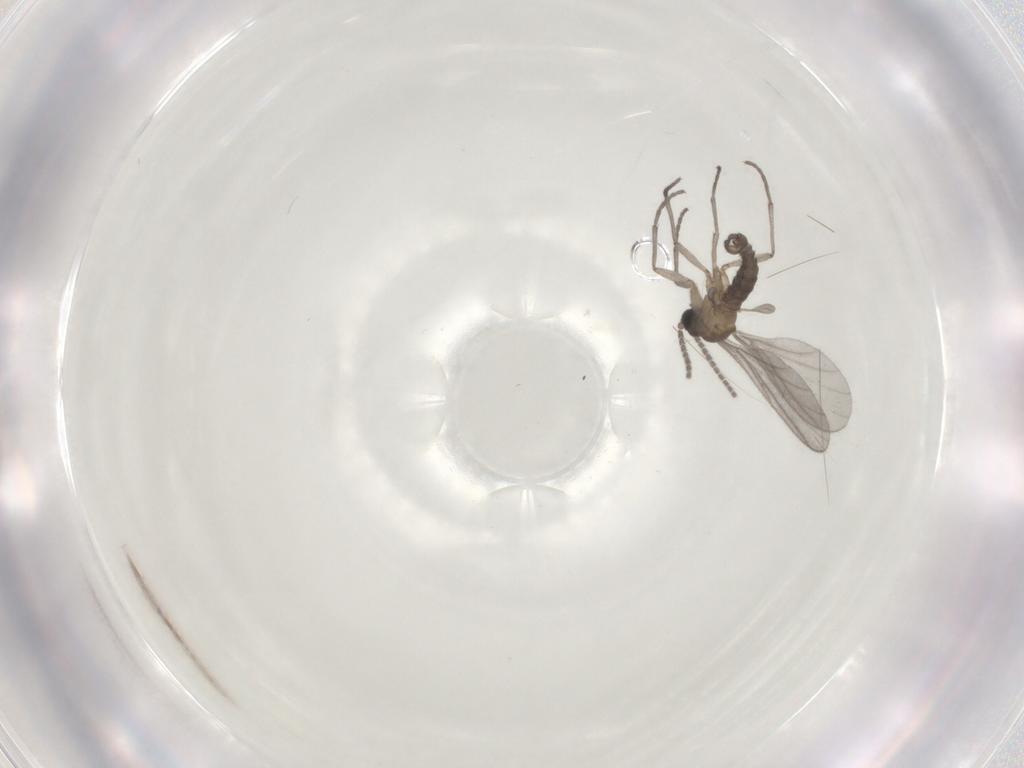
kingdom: Animalia
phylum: Arthropoda
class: Insecta
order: Diptera
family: Sciaridae
